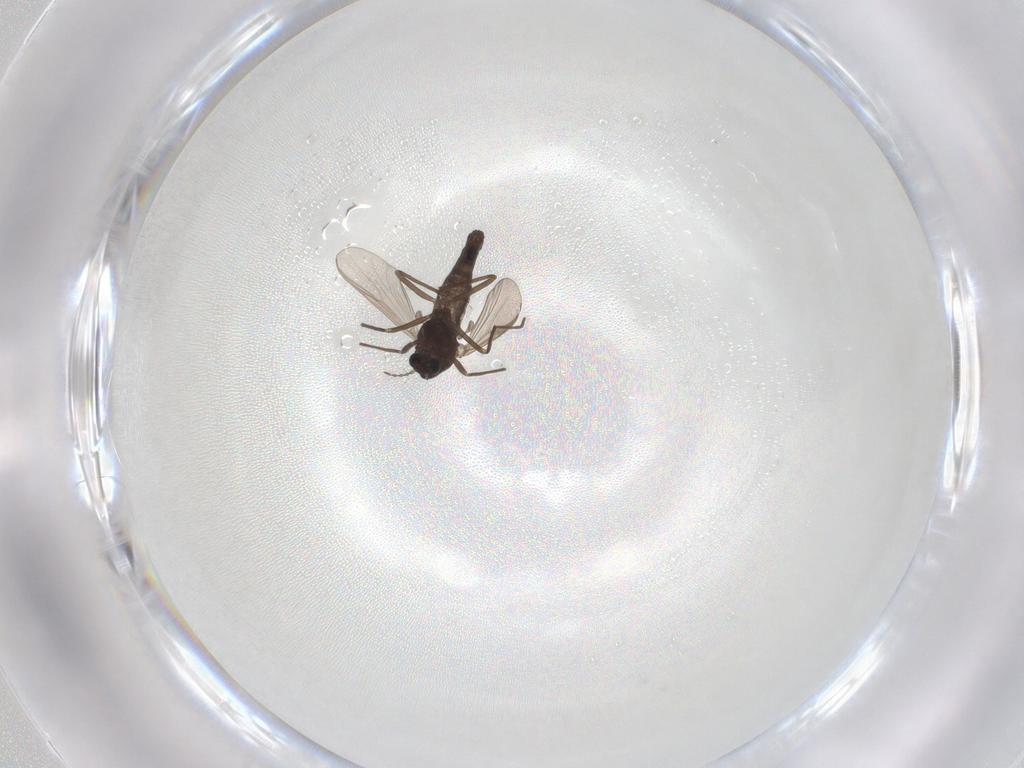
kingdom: Animalia
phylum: Arthropoda
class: Insecta
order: Diptera
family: Chironomidae
